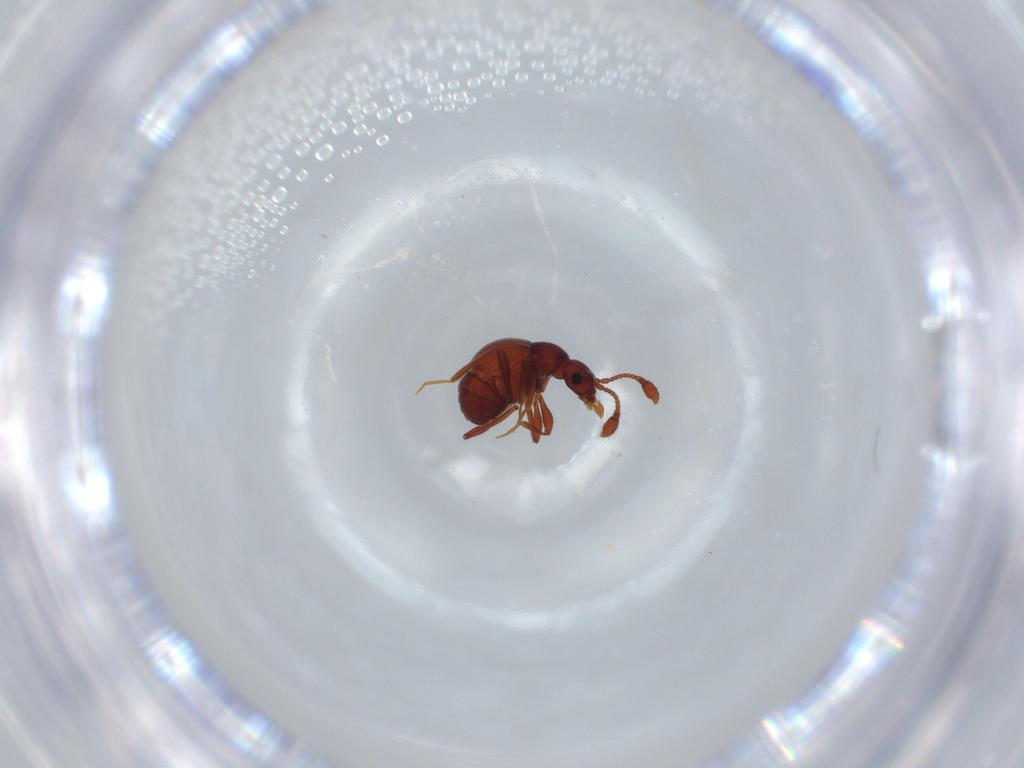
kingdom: Animalia
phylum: Arthropoda
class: Insecta
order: Coleoptera
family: Staphylinidae
